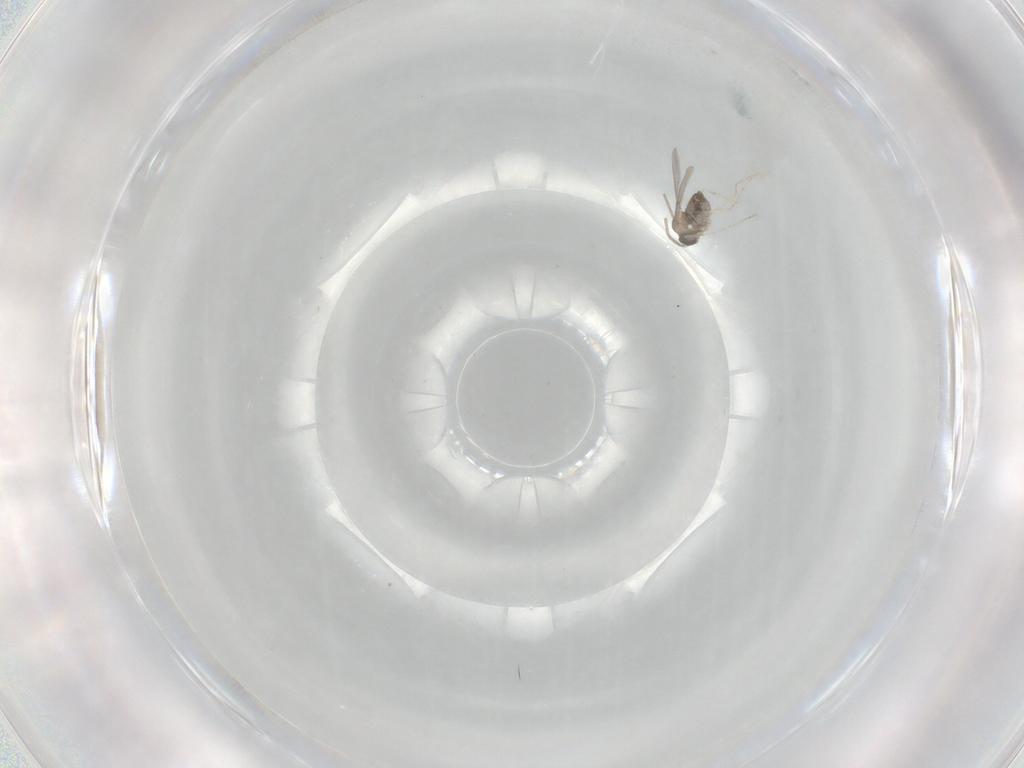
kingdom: Animalia
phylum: Arthropoda
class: Insecta
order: Diptera
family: Cecidomyiidae
